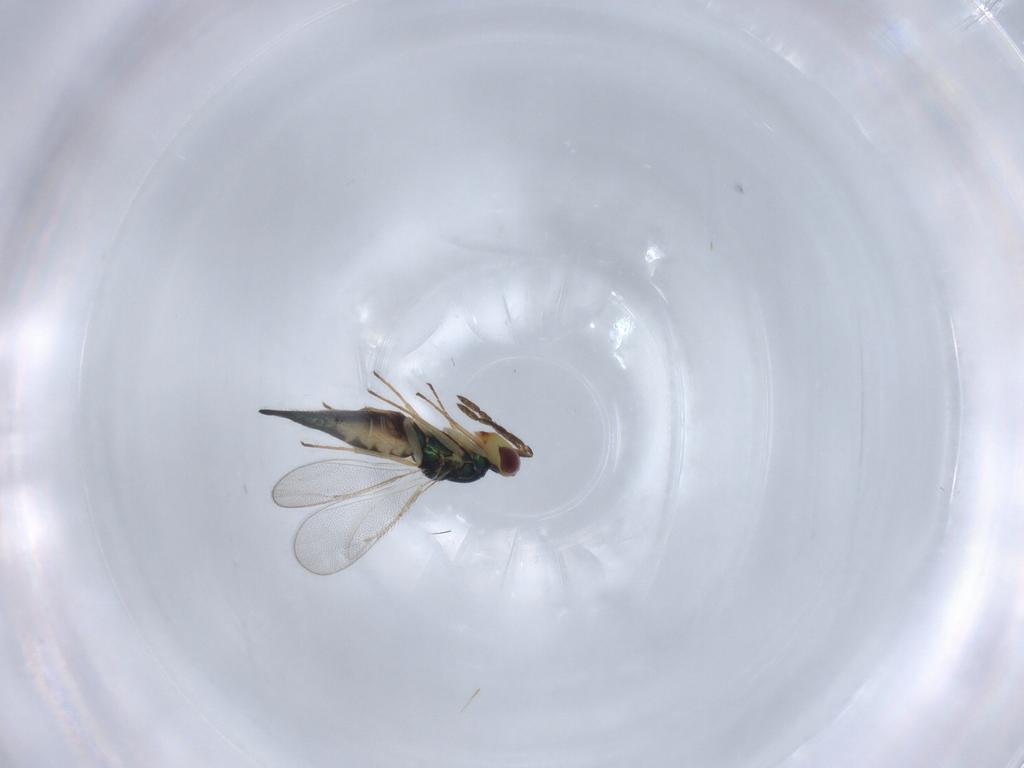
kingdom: Animalia
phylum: Arthropoda
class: Insecta
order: Hymenoptera
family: Eulophidae
